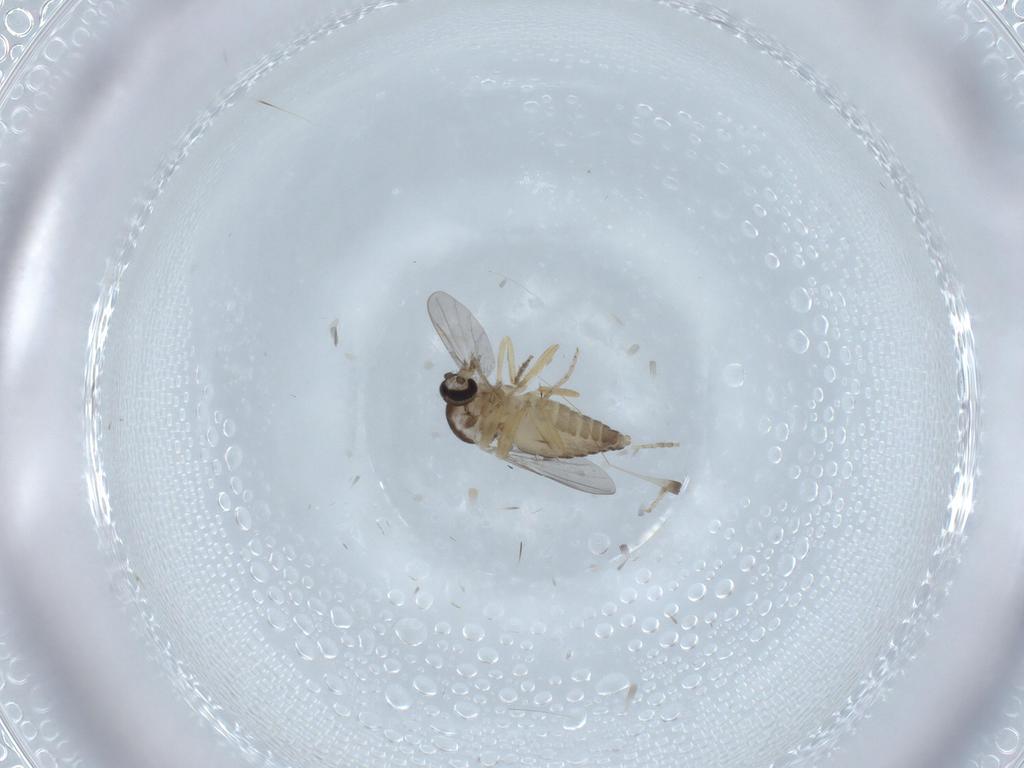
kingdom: Animalia
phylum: Arthropoda
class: Insecta
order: Diptera
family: Ceratopogonidae
